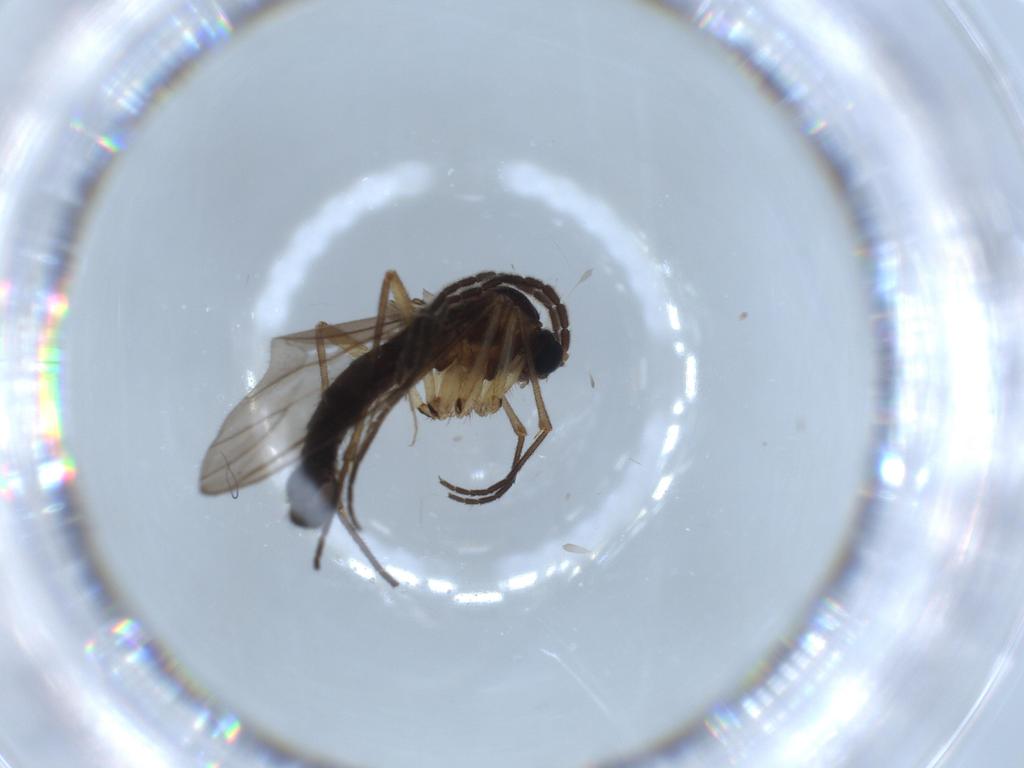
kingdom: Animalia
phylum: Arthropoda
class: Insecta
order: Diptera
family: Sciaridae
